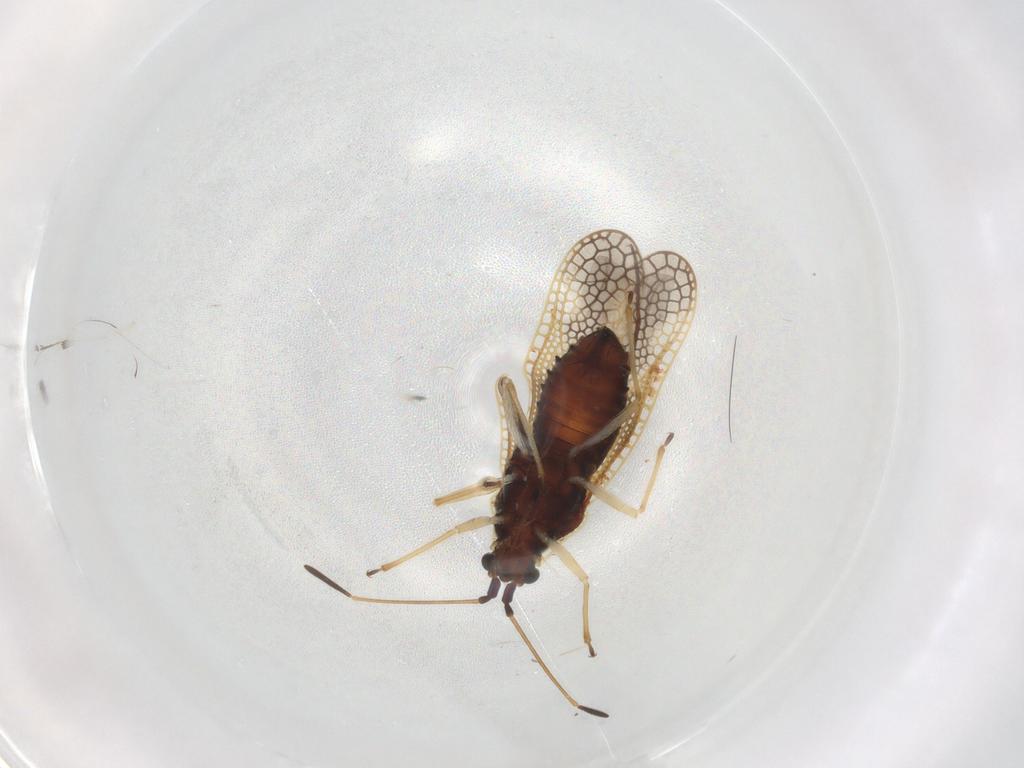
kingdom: Animalia
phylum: Arthropoda
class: Insecta
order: Hemiptera
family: Tingidae
